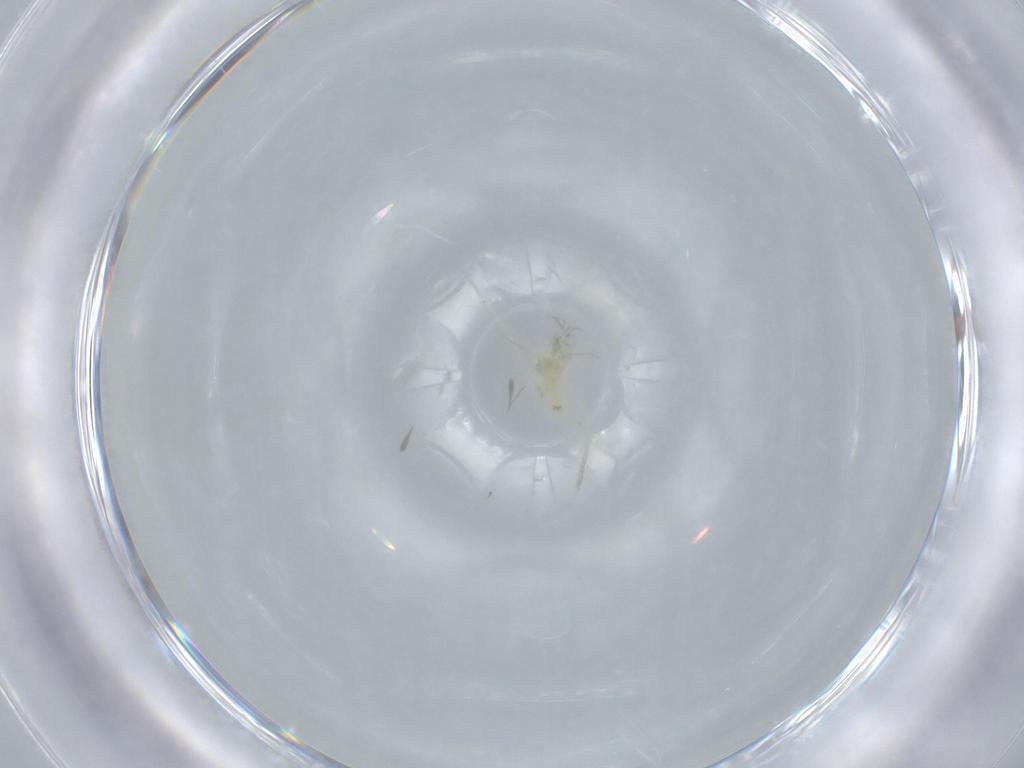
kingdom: Animalia
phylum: Arthropoda
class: Insecta
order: Hemiptera
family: Aleyrodidae
